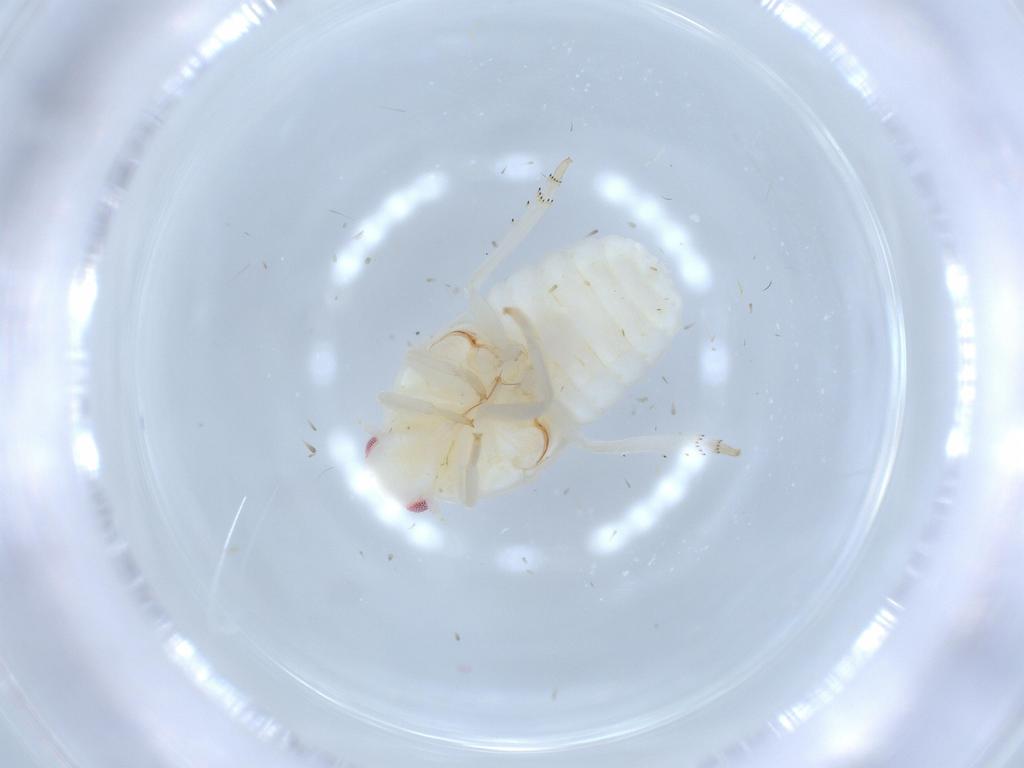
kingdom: Animalia
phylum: Arthropoda
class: Insecta
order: Hemiptera
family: Flatidae
